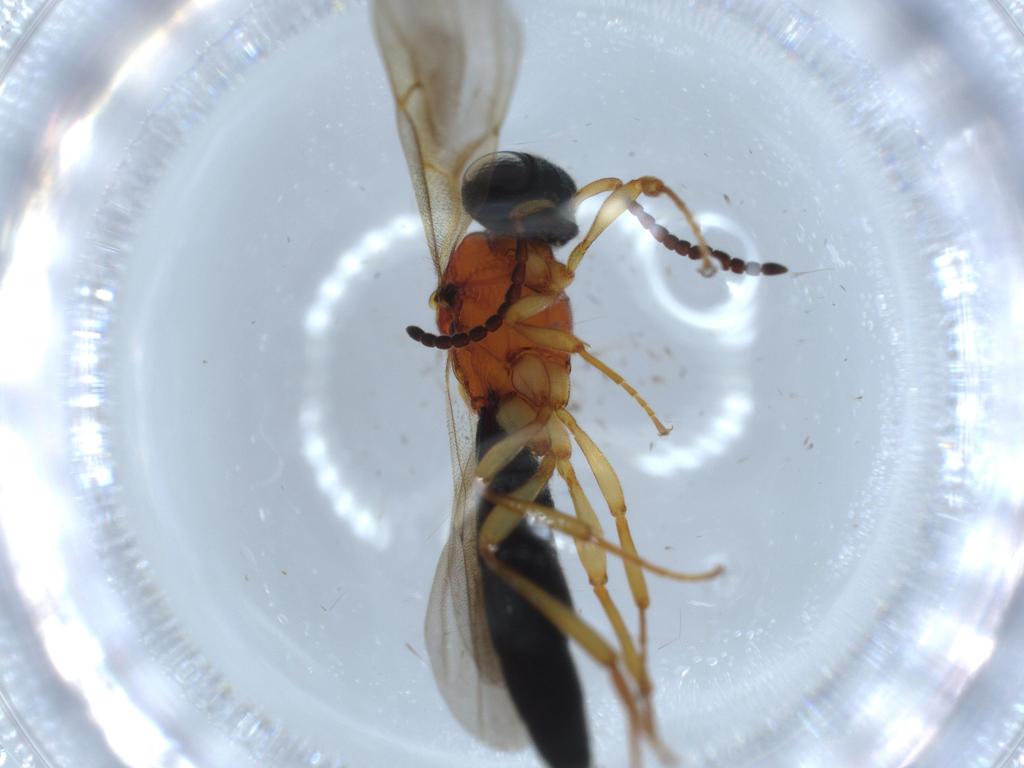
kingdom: Animalia
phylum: Arthropoda
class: Insecta
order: Hymenoptera
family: Scelionidae
